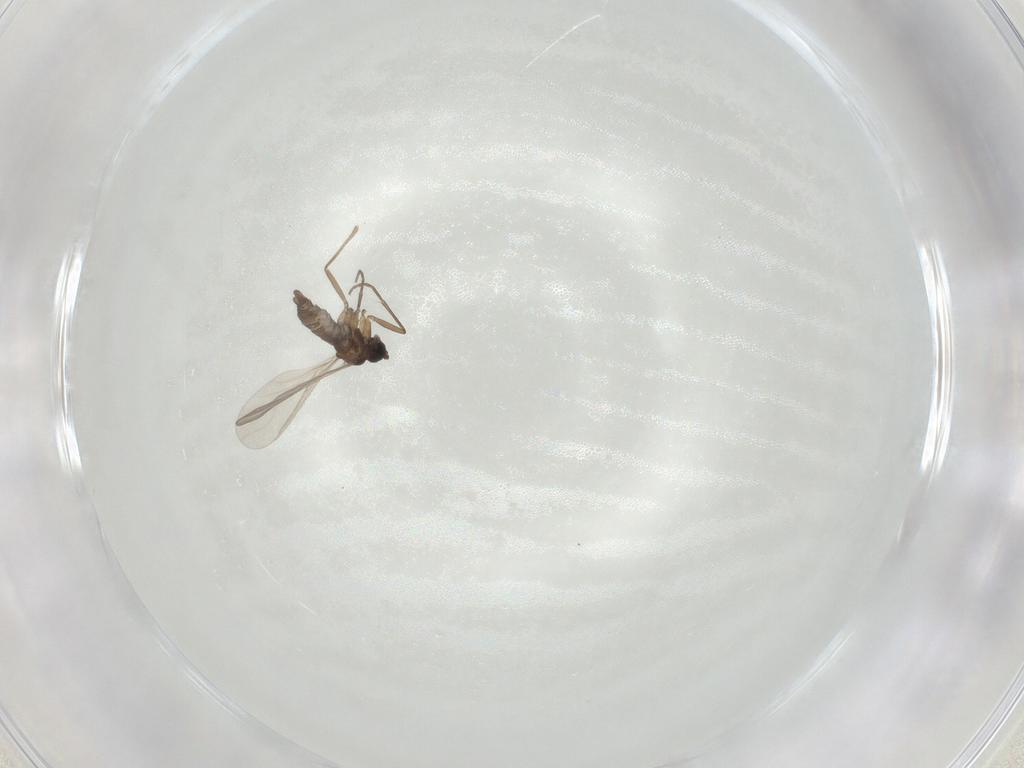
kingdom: Animalia
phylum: Arthropoda
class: Insecta
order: Diptera
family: Sciaridae
